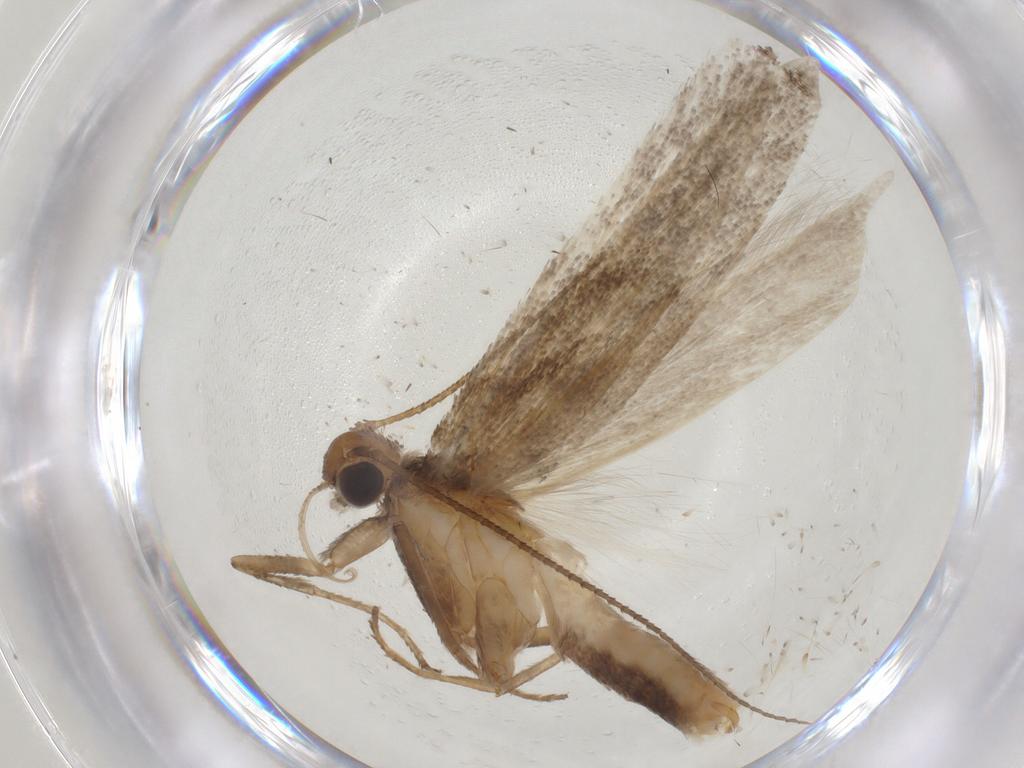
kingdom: Animalia
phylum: Arthropoda
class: Insecta
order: Lepidoptera
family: Gelechiidae
